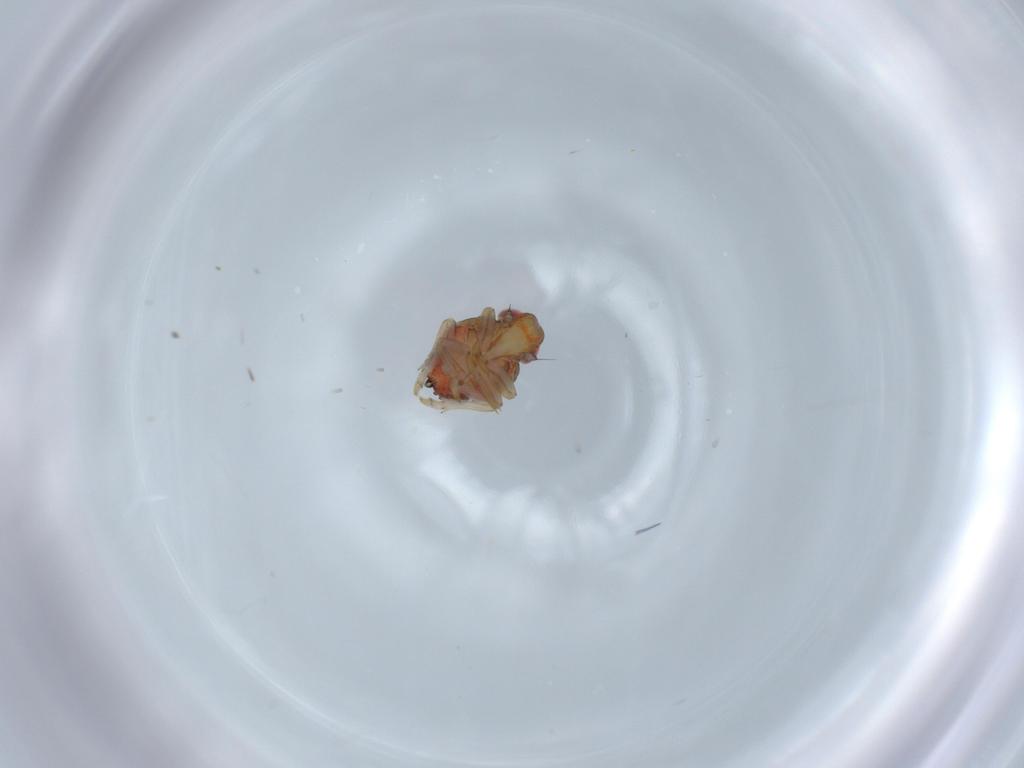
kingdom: Animalia
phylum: Arthropoda
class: Insecta
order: Hemiptera
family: Issidae
